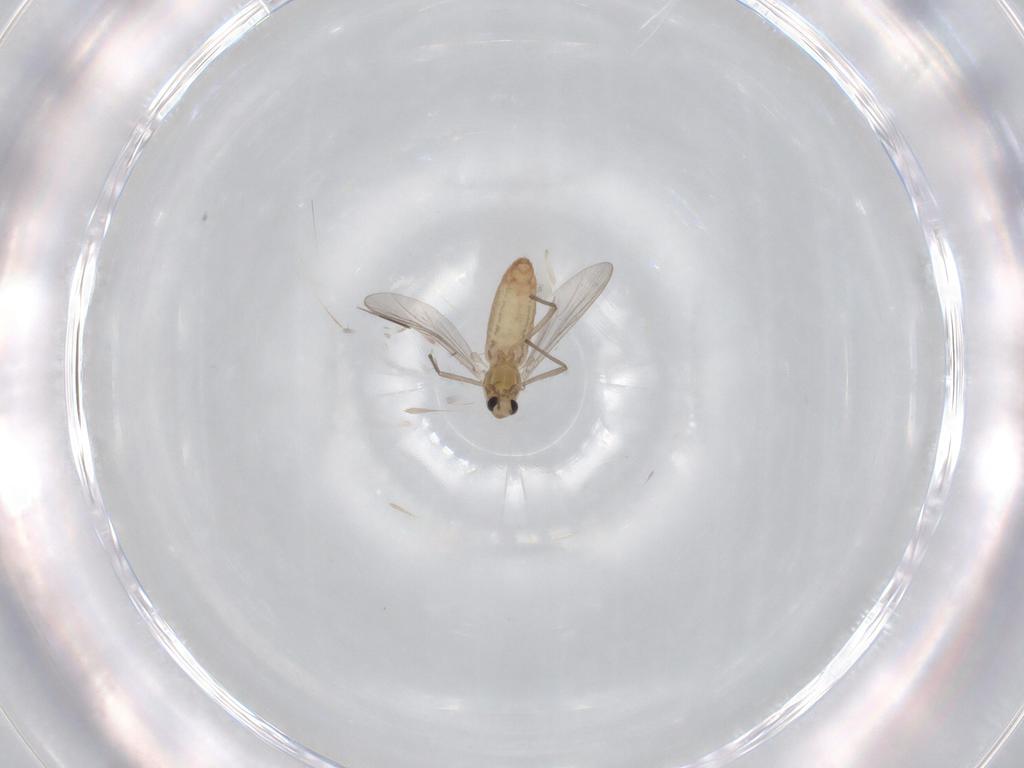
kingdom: Animalia
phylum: Arthropoda
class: Insecta
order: Diptera
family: Chironomidae
